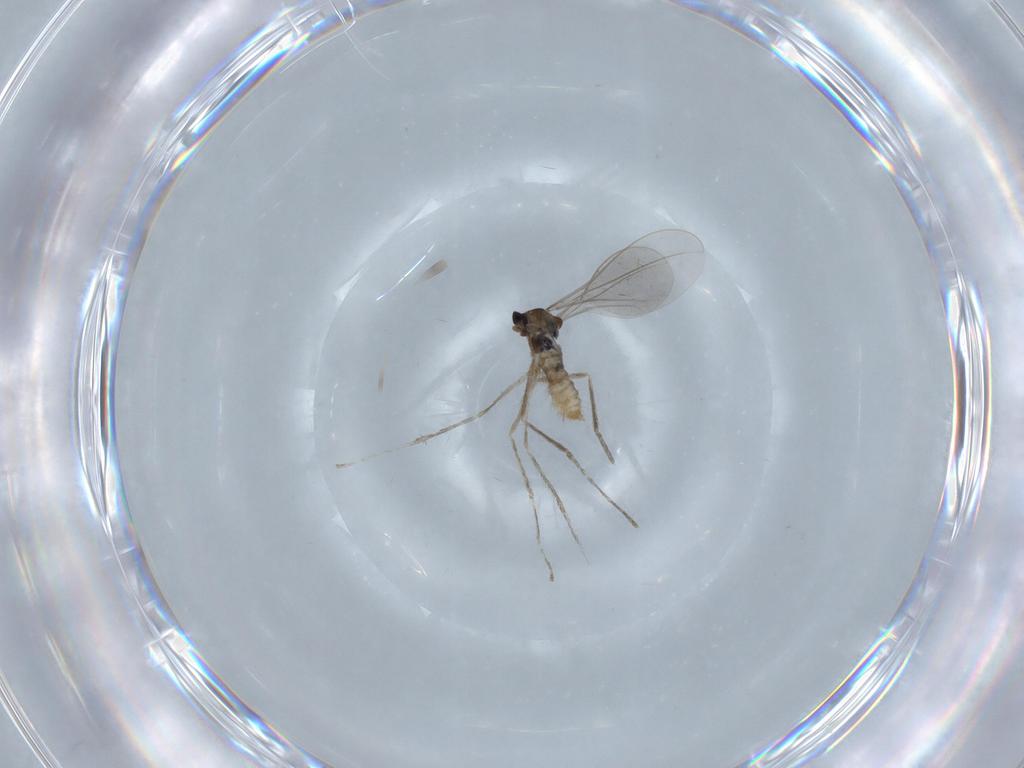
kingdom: Animalia
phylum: Arthropoda
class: Insecta
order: Diptera
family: Cecidomyiidae
